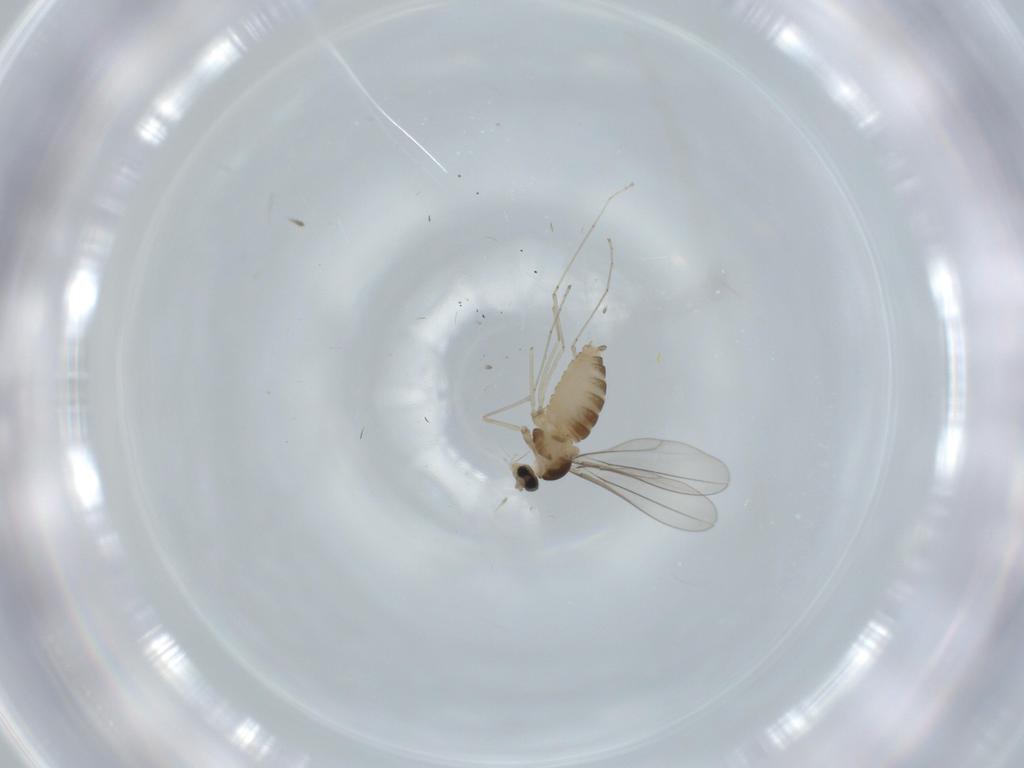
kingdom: Animalia
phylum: Arthropoda
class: Insecta
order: Diptera
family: Cecidomyiidae
